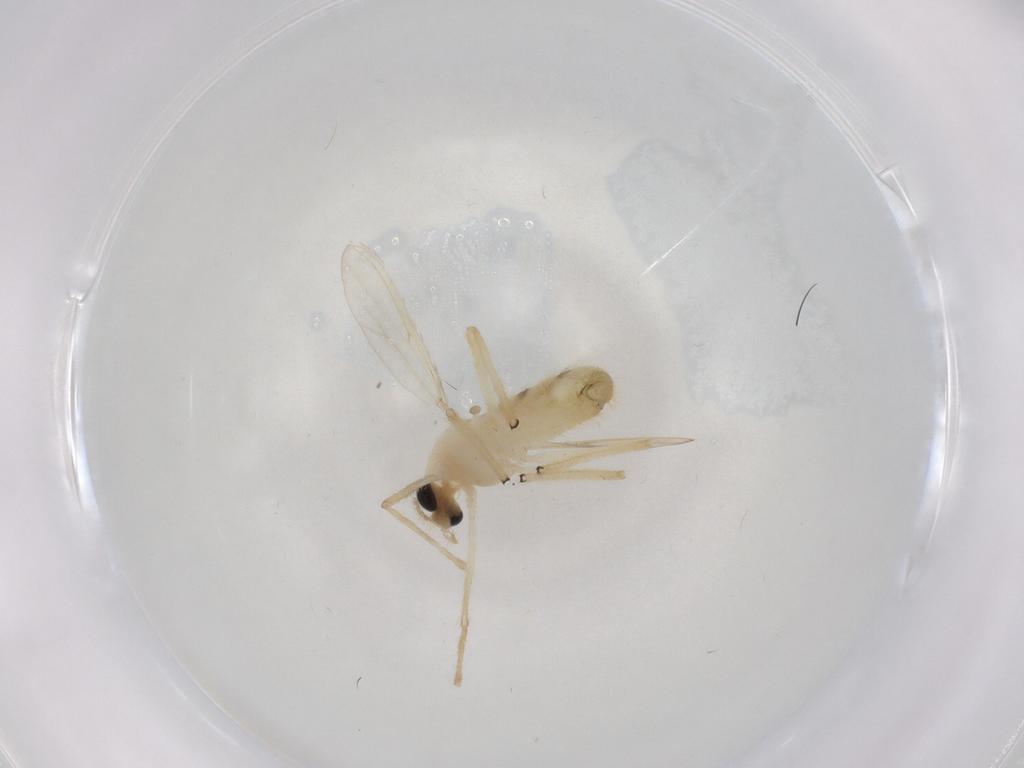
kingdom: Animalia
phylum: Arthropoda
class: Insecta
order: Diptera
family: Chironomidae
